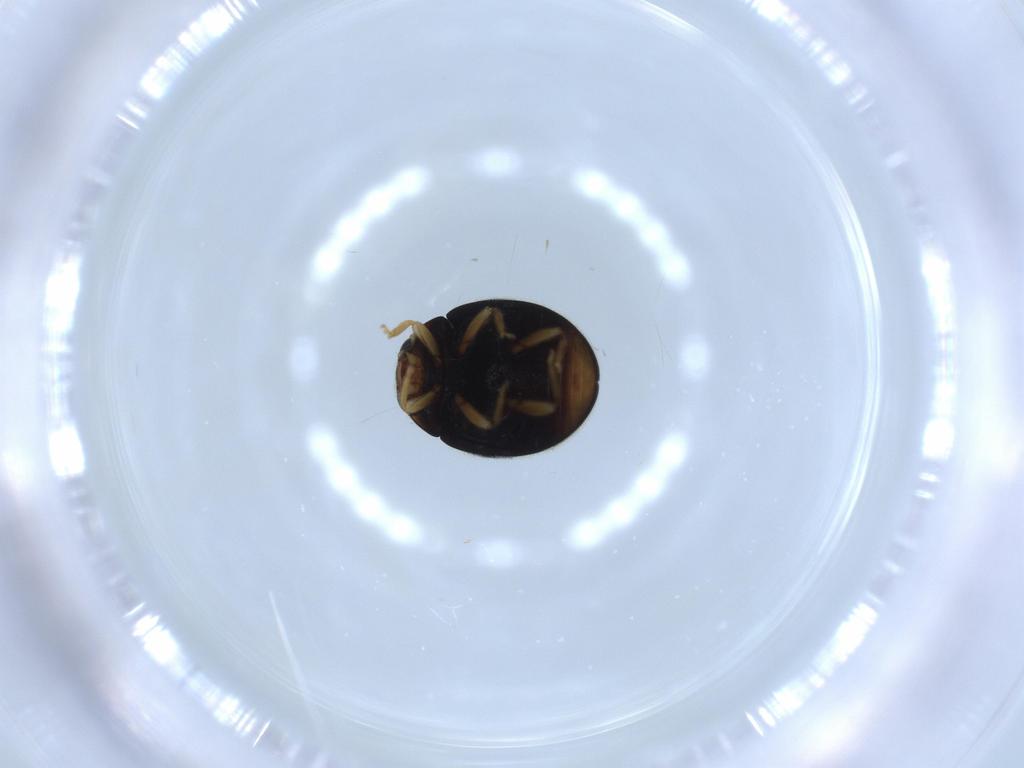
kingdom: Animalia
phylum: Arthropoda
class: Insecta
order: Coleoptera
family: Coccinellidae
